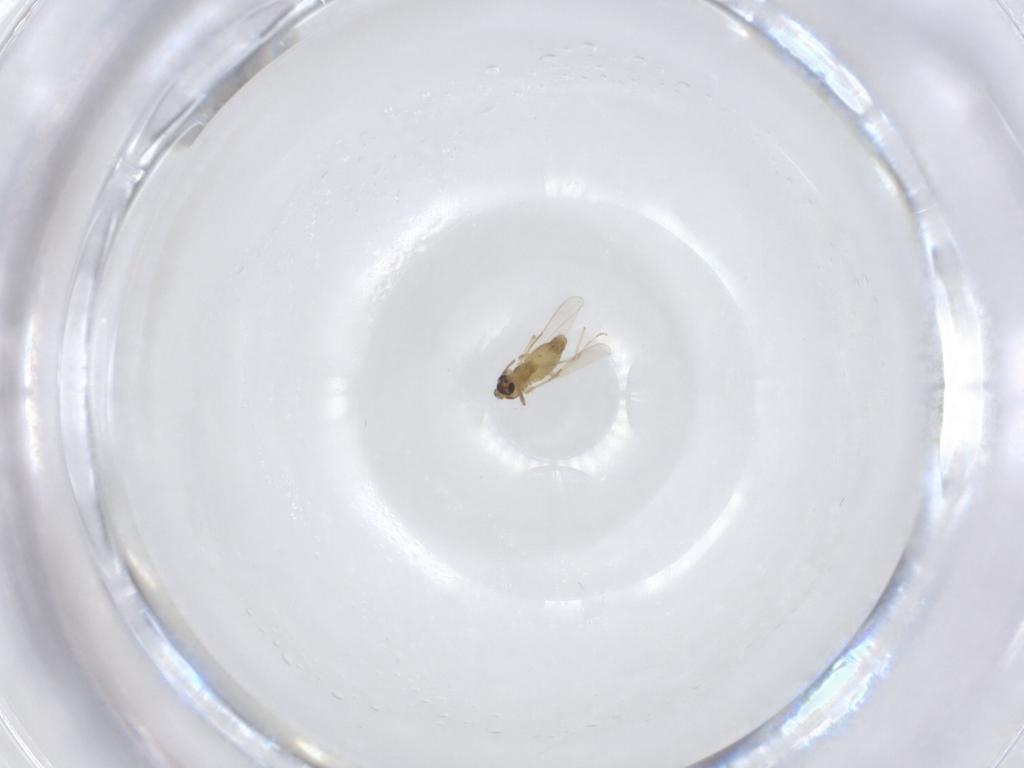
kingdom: Animalia
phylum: Arthropoda
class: Insecta
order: Diptera
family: Chironomidae
